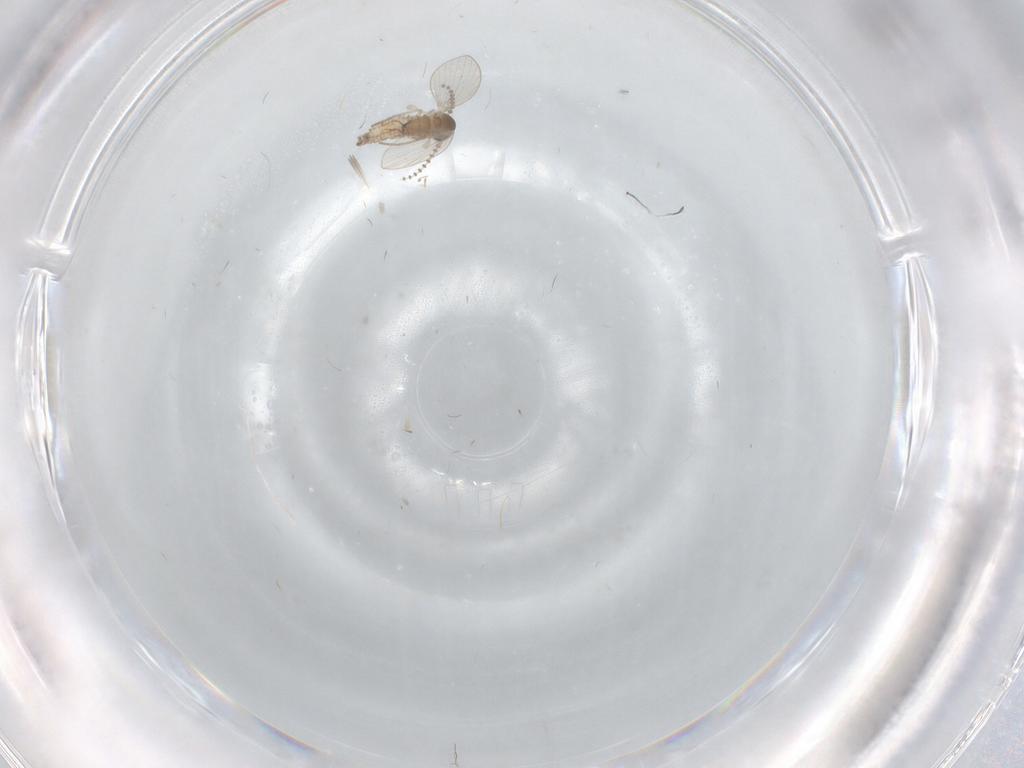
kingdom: Animalia
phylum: Arthropoda
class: Insecta
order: Diptera
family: Psychodidae
